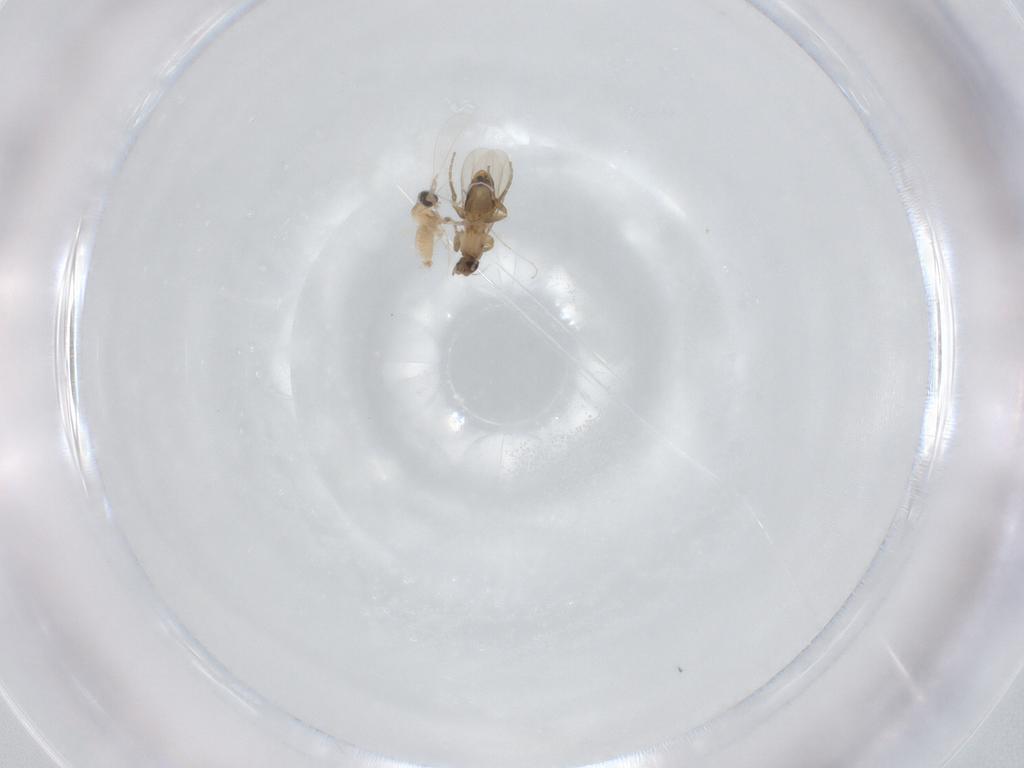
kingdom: Animalia
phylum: Arthropoda
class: Insecta
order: Diptera
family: Phoridae
